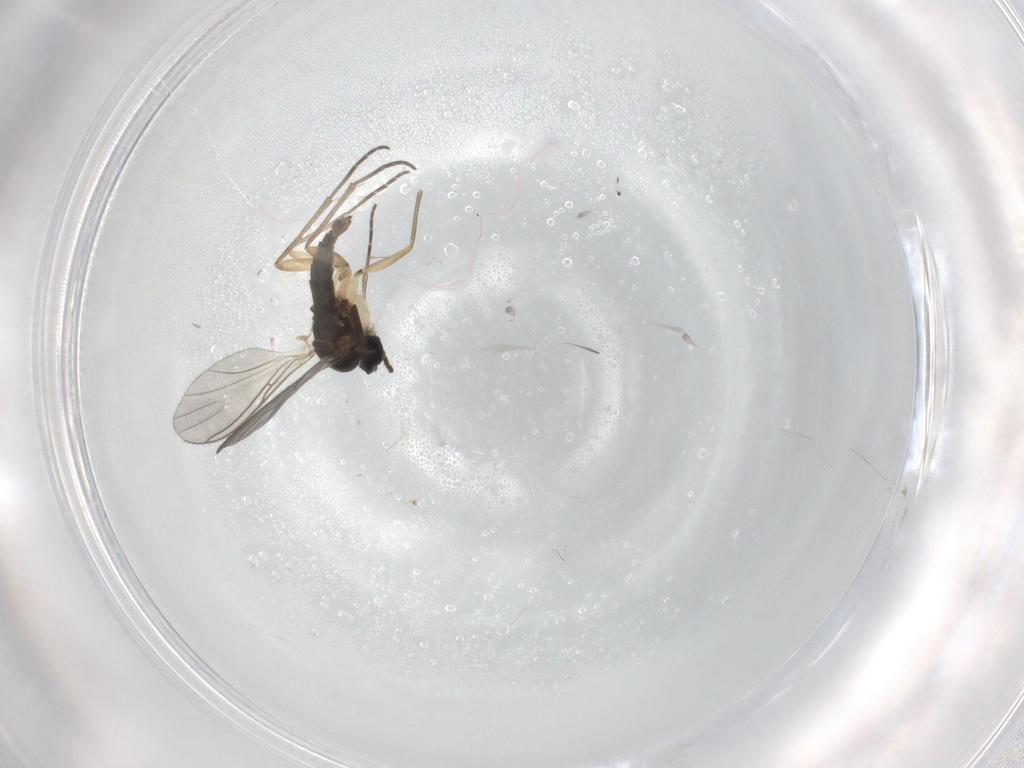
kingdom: Animalia
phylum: Arthropoda
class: Insecta
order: Diptera
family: Sciaridae
